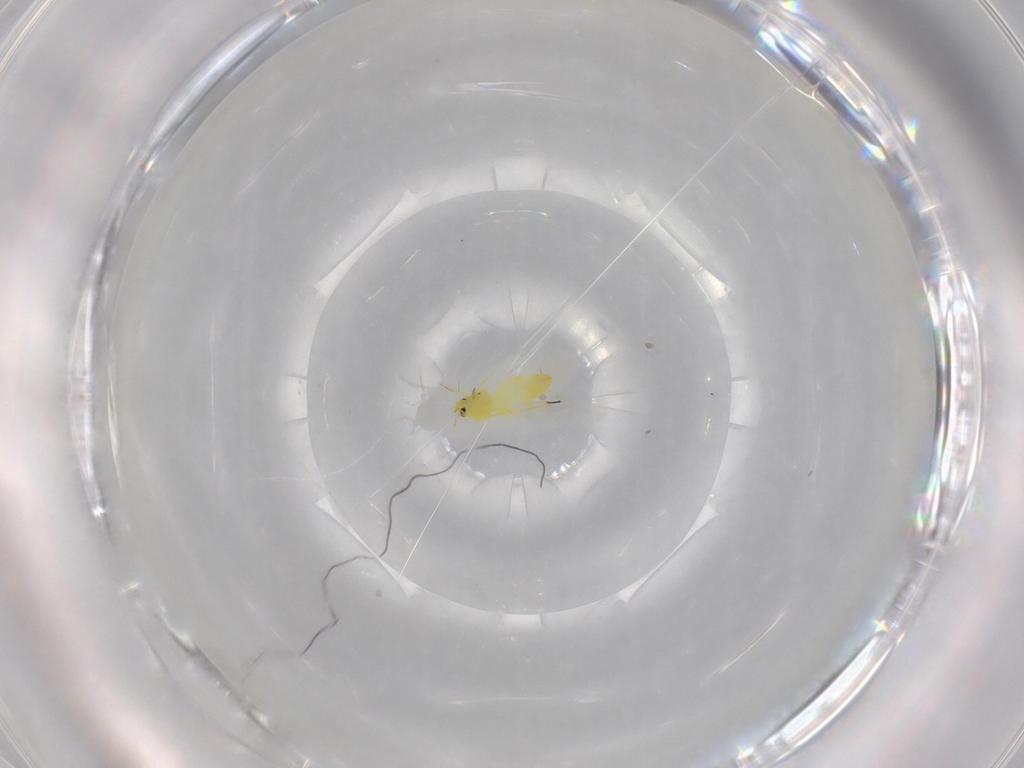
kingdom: Animalia
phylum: Arthropoda
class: Insecta
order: Hemiptera
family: Aleyrodidae
